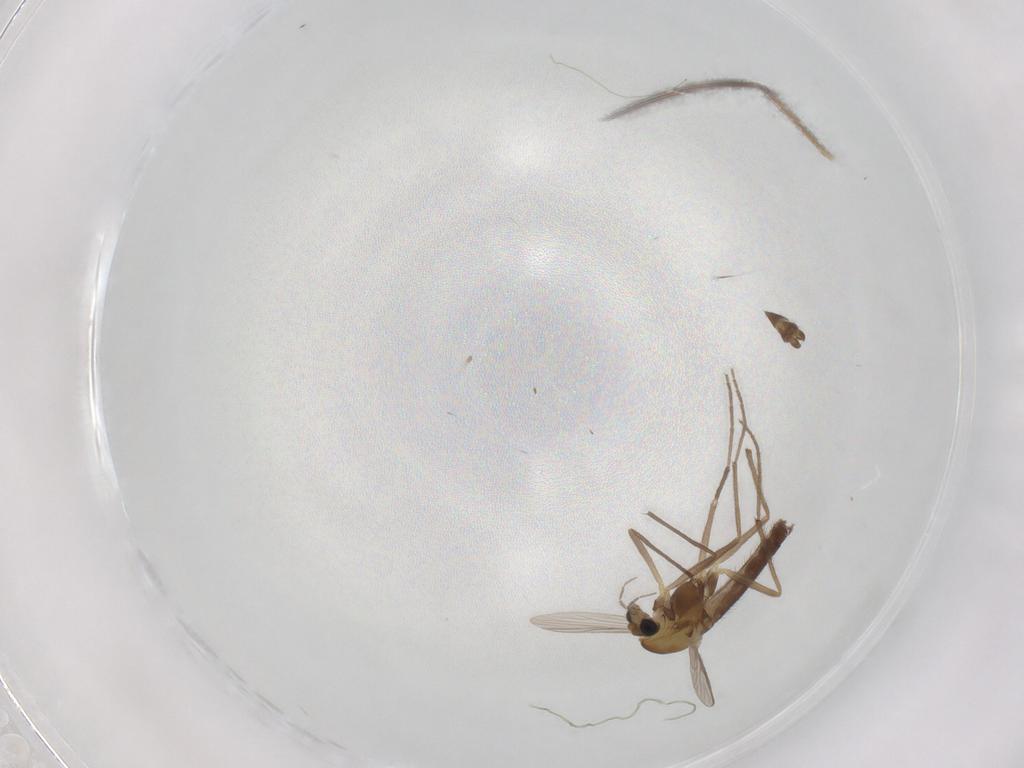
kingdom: Animalia
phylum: Arthropoda
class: Insecta
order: Diptera
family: Chironomidae
